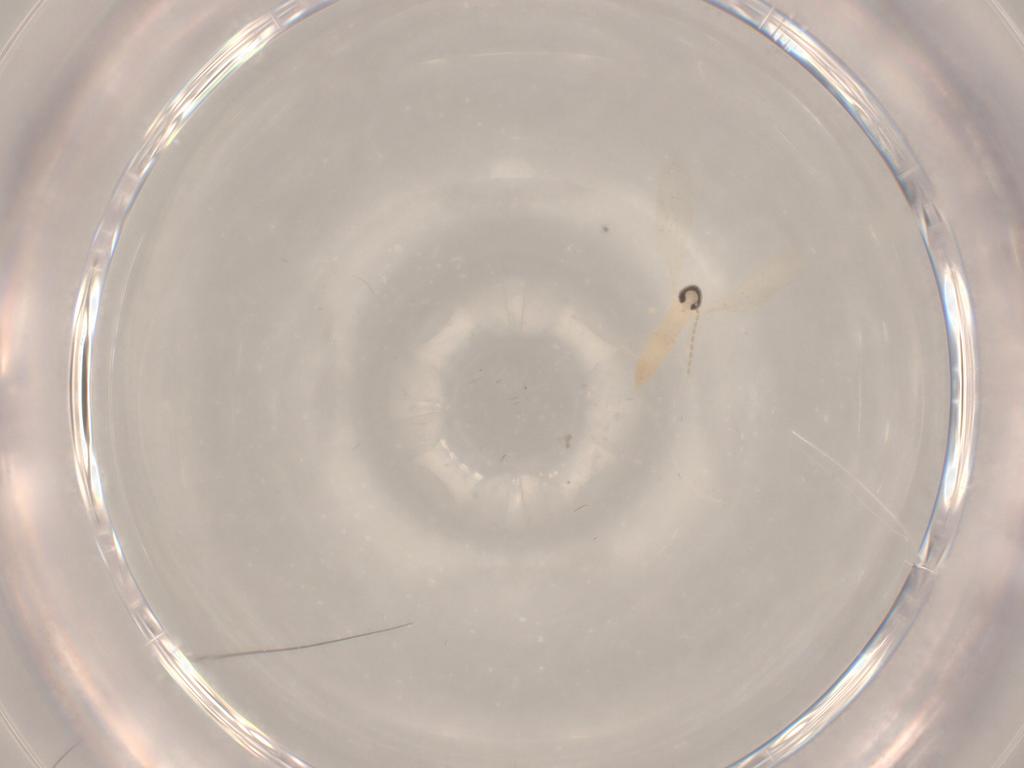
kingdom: Animalia
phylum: Arthropoda
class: Insecta
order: Diptera
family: Cecidomyiidae
